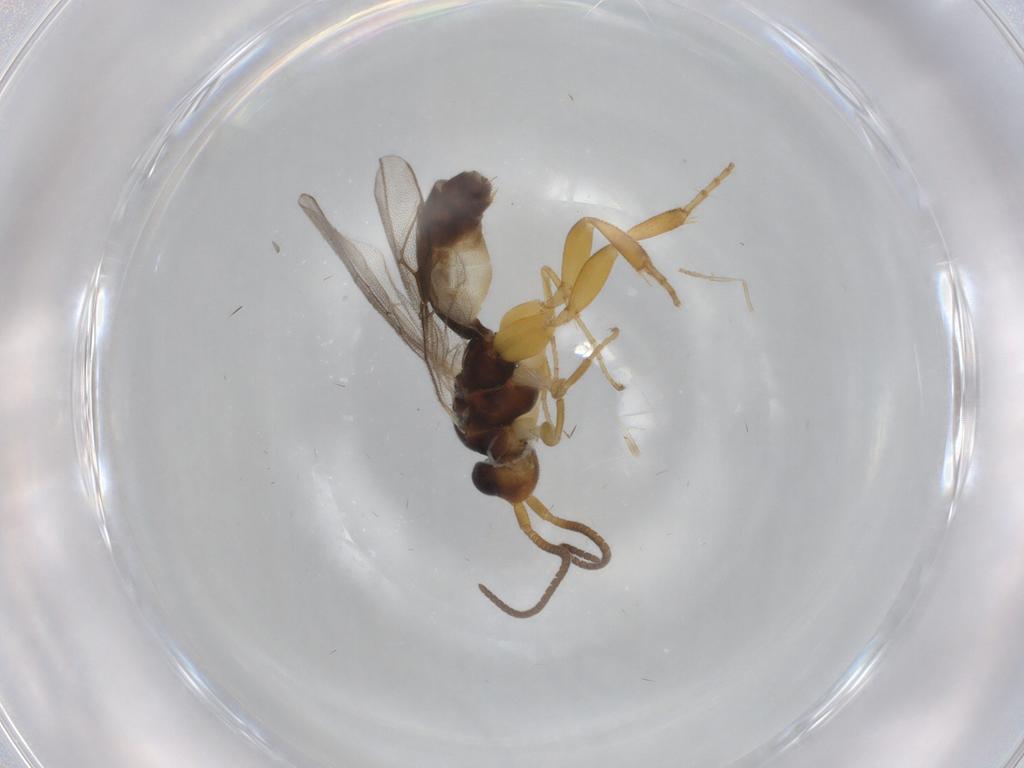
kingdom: Animalia
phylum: Arthropoda
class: Insecta
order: Hymenoptera
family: Ichneumonidae
